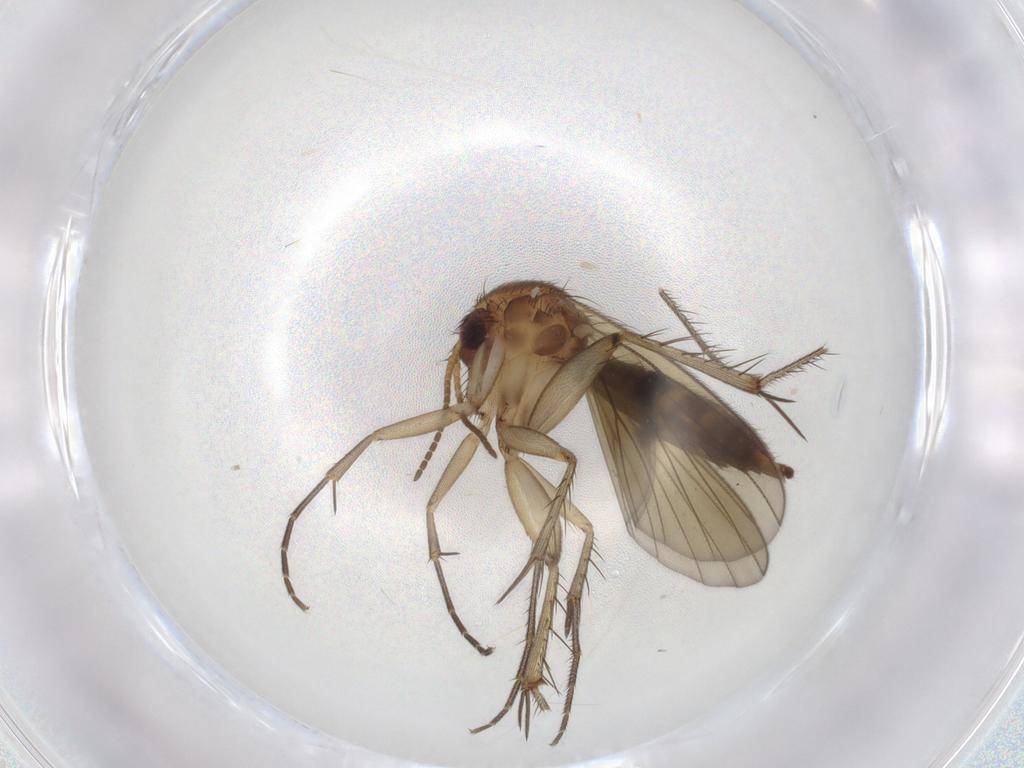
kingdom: Animalia
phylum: Arthropoda
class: Insecta
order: Diptera
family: Mycetophilidae
